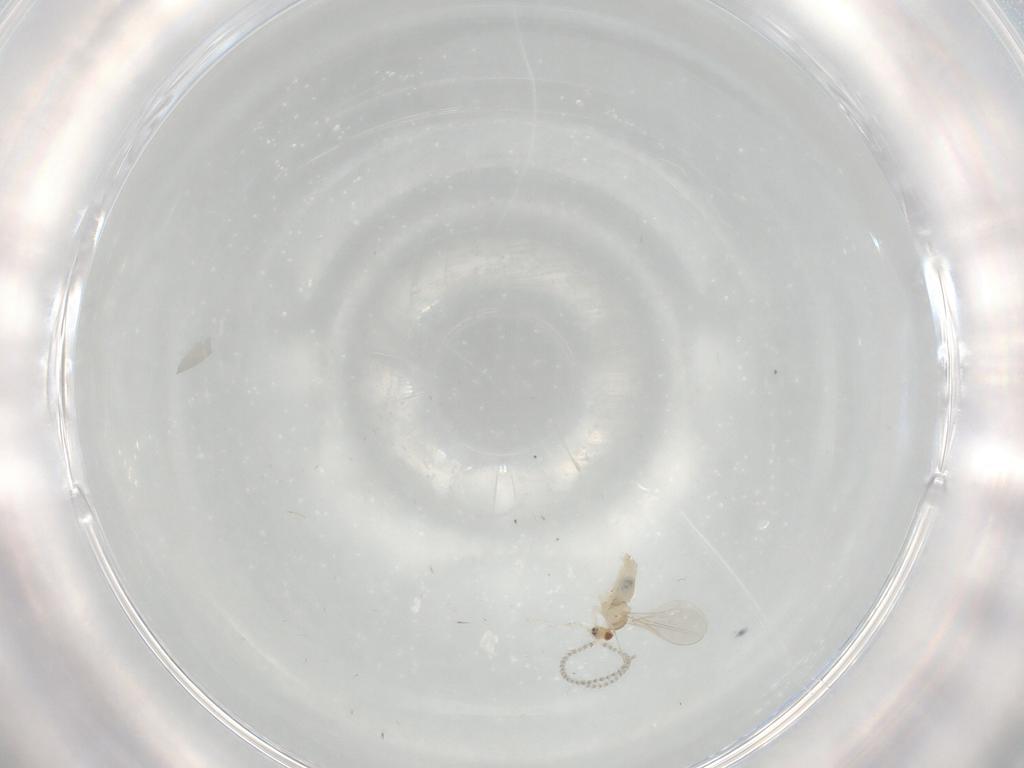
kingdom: Animalia
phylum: Arthropoda
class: Insecta
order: Diptera
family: Cecidomyiidae
